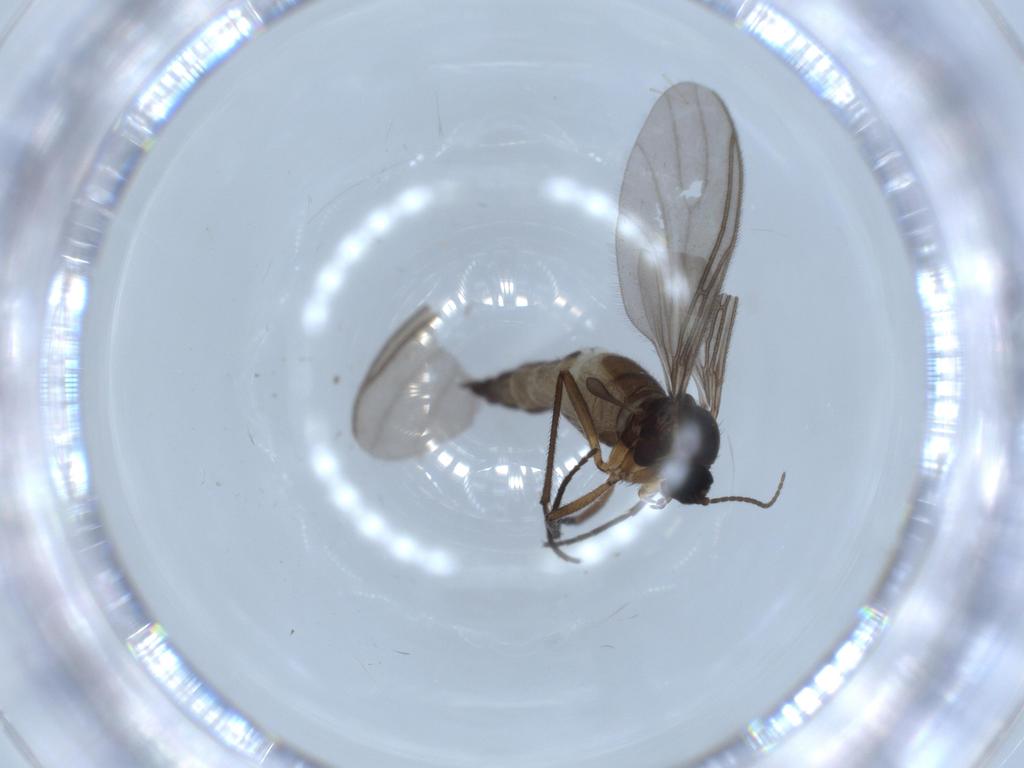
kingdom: Animalia
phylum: Arthropoda
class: Insecta
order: Diptera
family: Sciaridae
